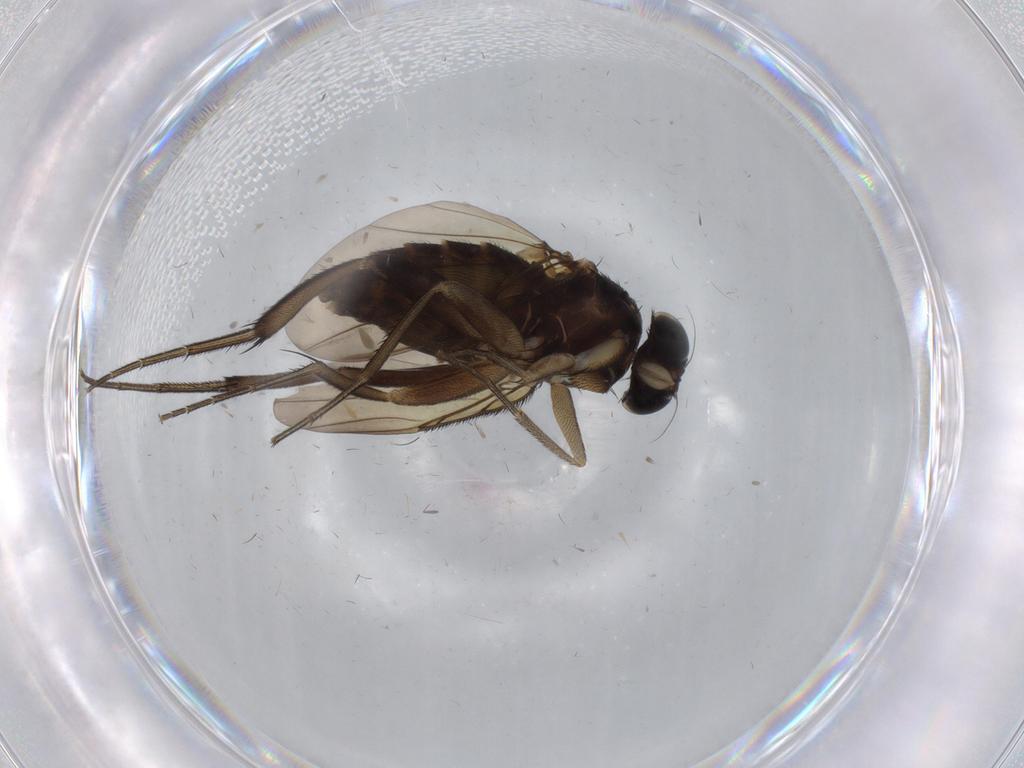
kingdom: Animalia
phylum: Arthropoda
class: Insecta
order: Diptera
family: Phoridae
